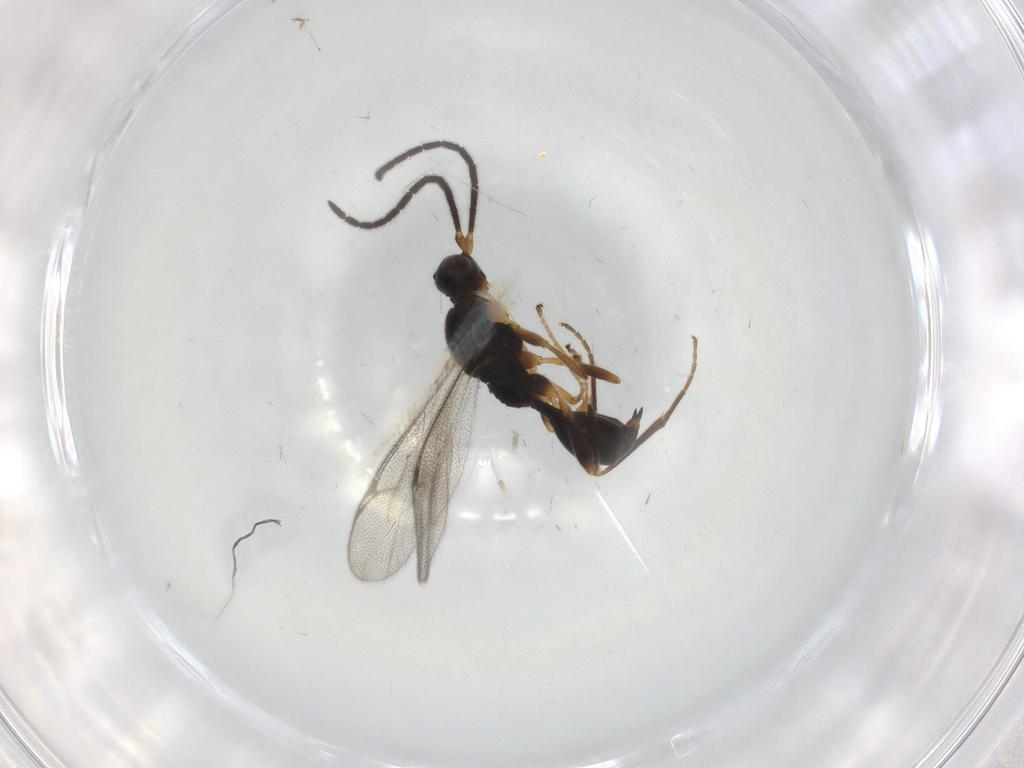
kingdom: Animalia
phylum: Arthropoda
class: Insecta
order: Hymenoptera
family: Proctotrupidae
